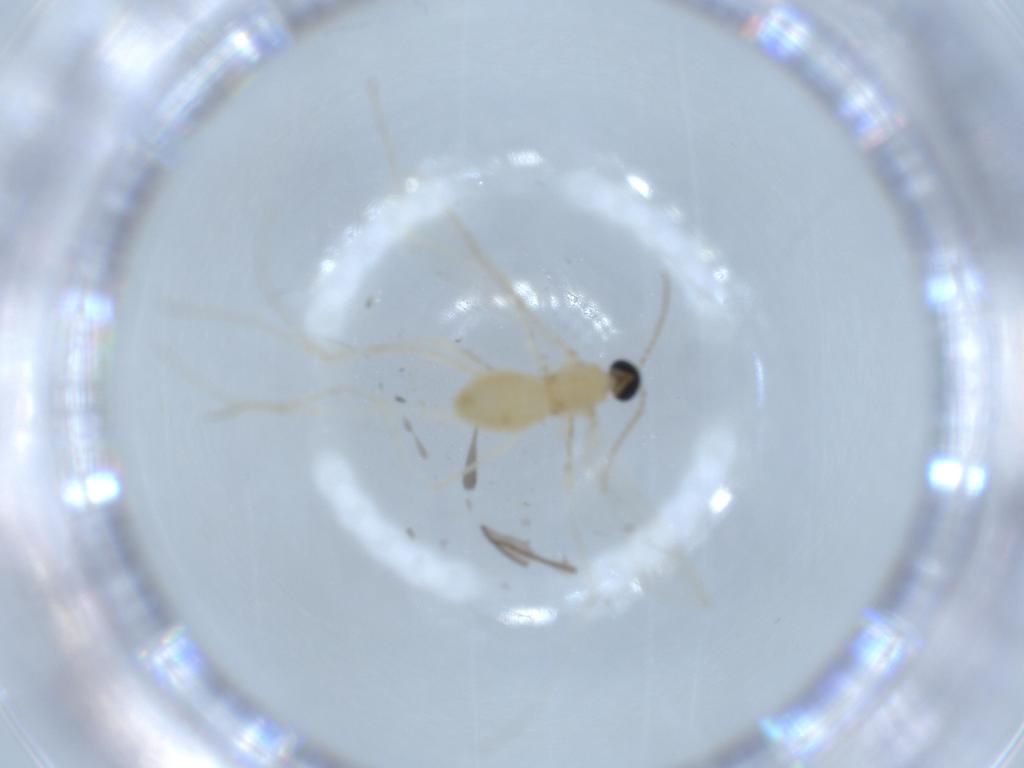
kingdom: Animalia
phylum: Arthropoda
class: Insecta
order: Diptera
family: Cecidomyiidae
